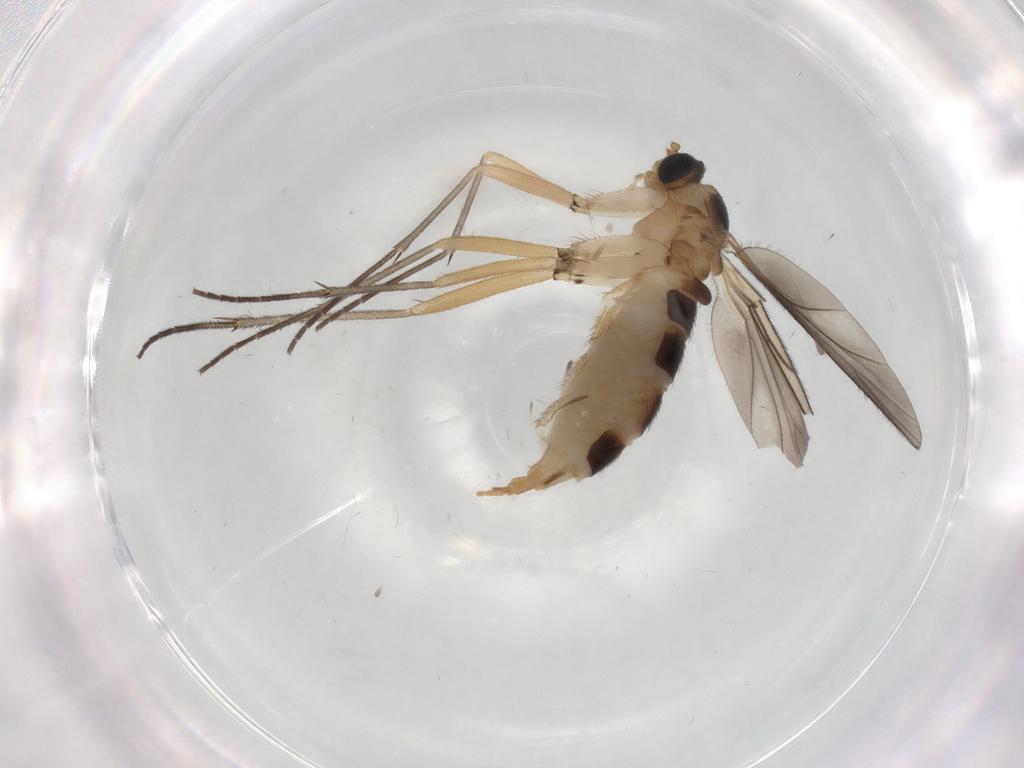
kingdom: Animalia
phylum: Arthropoda
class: Insecta
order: Diptera
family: Sciaridae
